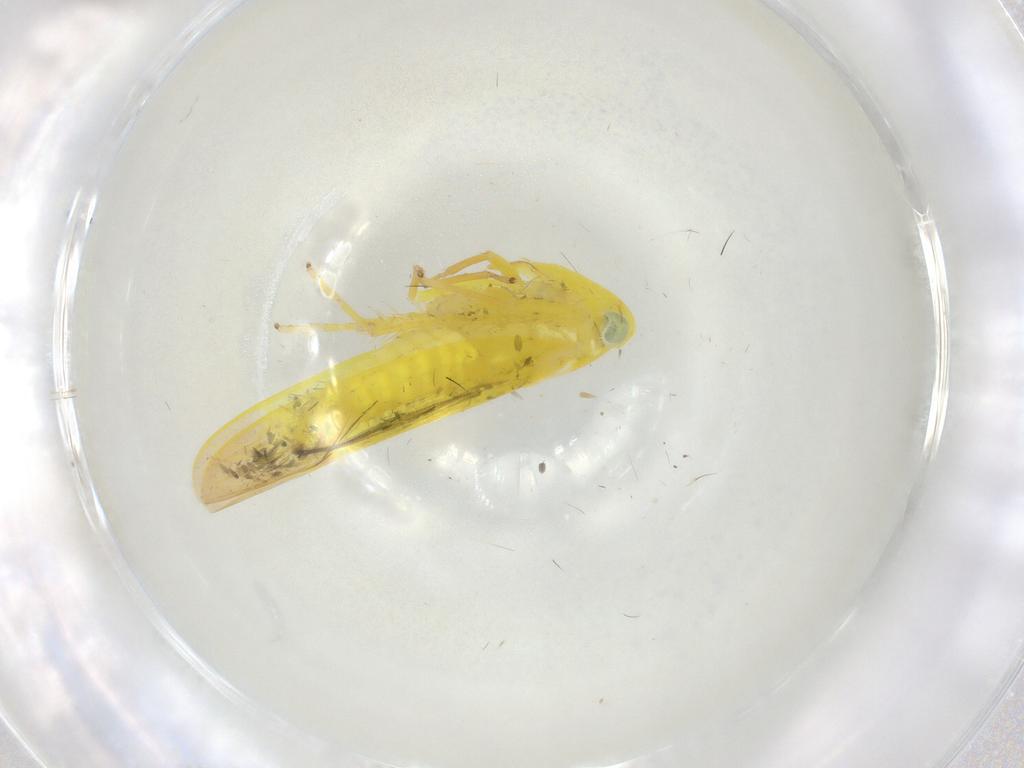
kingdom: Animalia
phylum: Arthropoda
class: Insecta
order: Hemiptera
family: Cicadellidae
